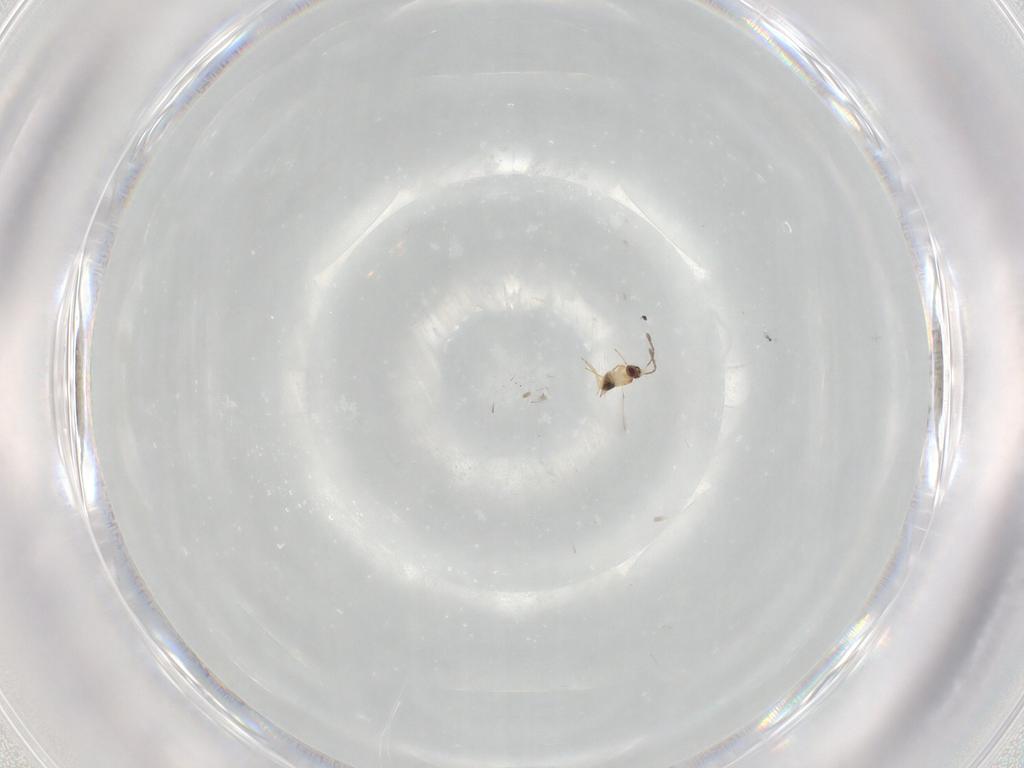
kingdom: Animalia
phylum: Arthropoda
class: Insecta
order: Hymenoptera
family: Mymaridae
